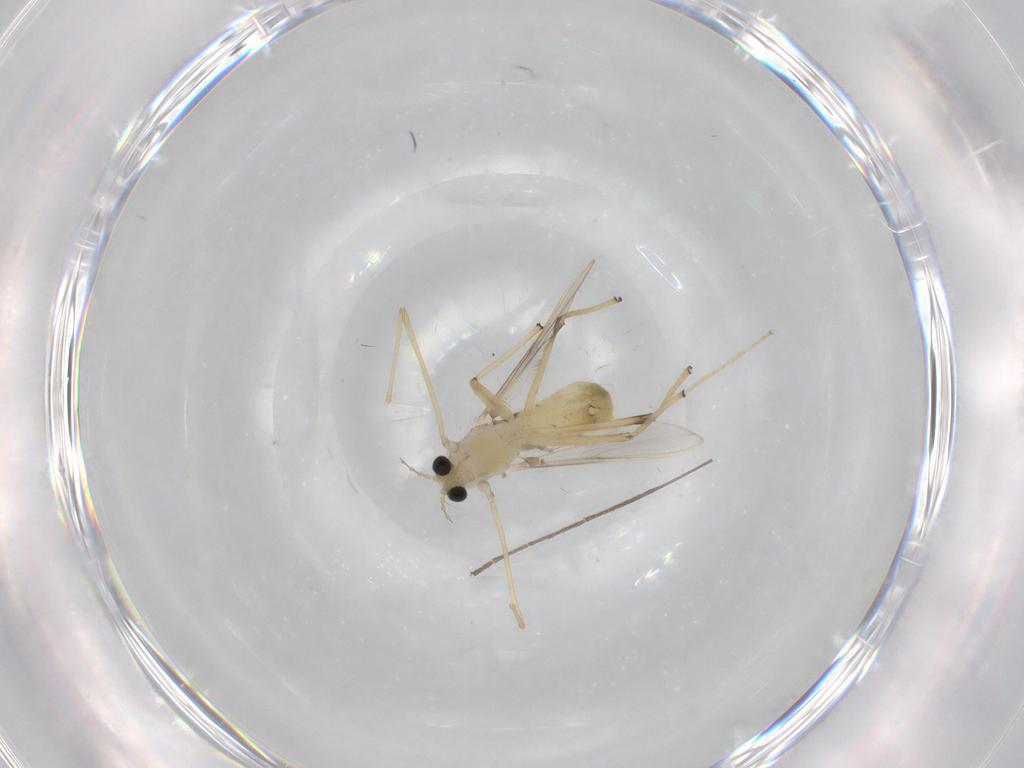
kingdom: Animalia
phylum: Arthropoda
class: Insecta
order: Diptera
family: Chironomidae
